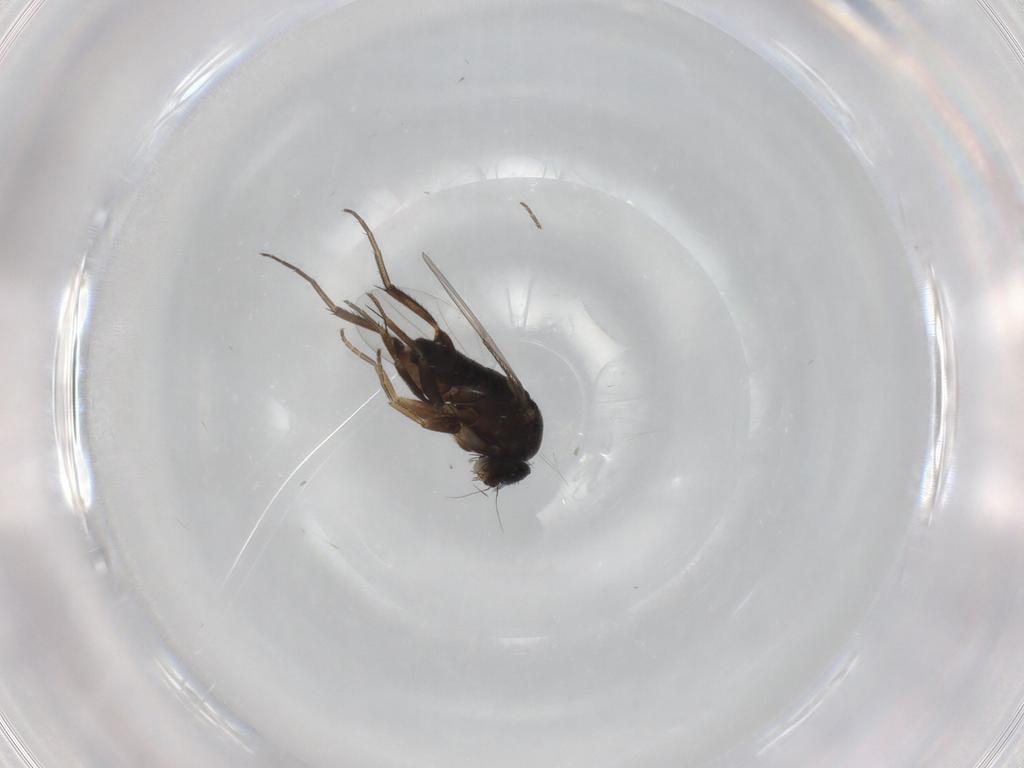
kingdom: Animalia
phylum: Arthropoda
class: Insecta
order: Diptera
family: Phoridae
